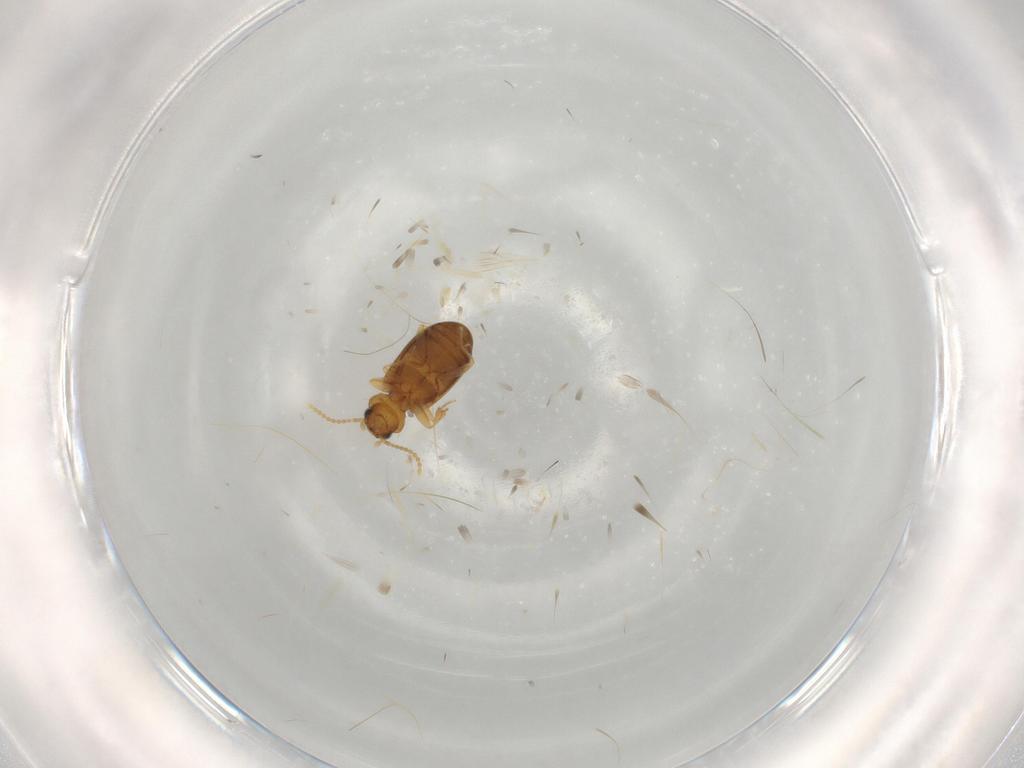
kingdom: Animalia
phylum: Arthropoda
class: Insecta
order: Coleoptera
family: Carabidae
